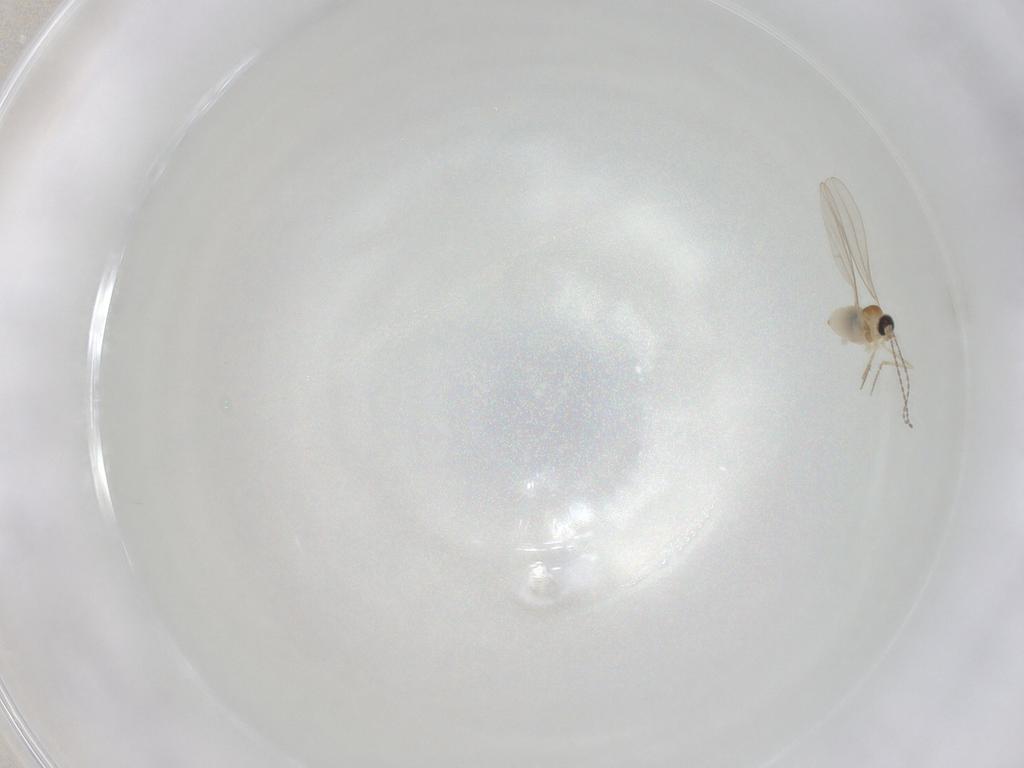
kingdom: Animalia
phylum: Arthropoda
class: Insecta
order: Diptera
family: Cecidomyiidae
